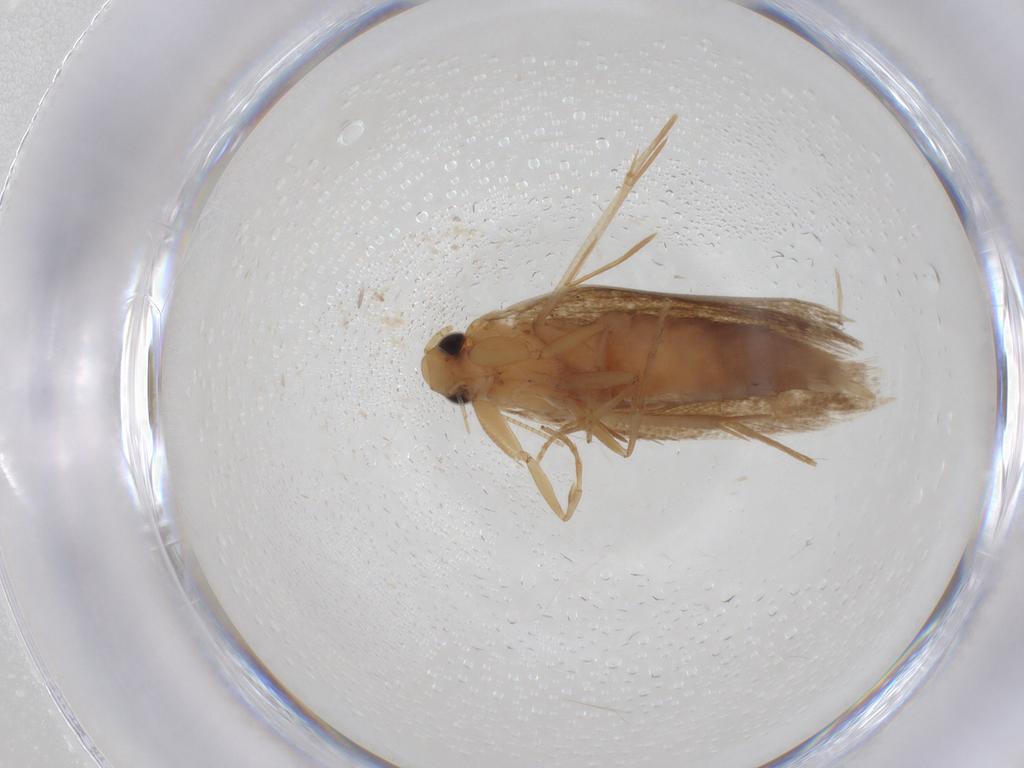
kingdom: Animalia
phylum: Arthropoda
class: Insecta
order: Lepidoptera
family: Tineidae
